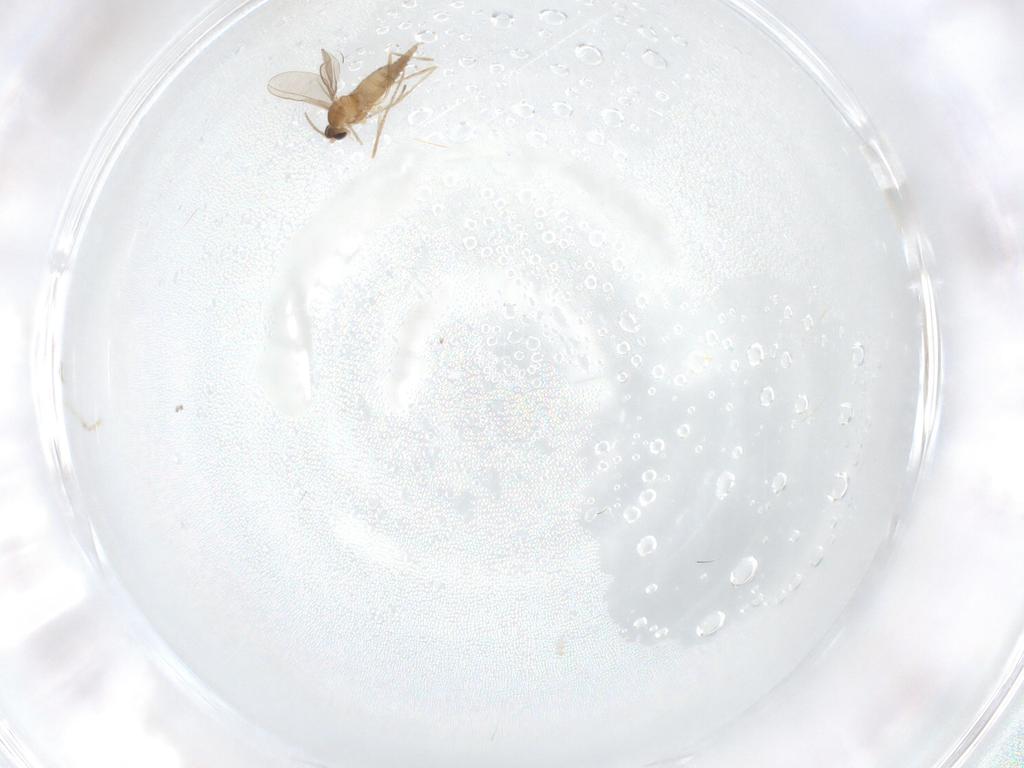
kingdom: Animalia
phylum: Arthropoda
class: Insecta
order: Diptera
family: Cecidomyiidae
